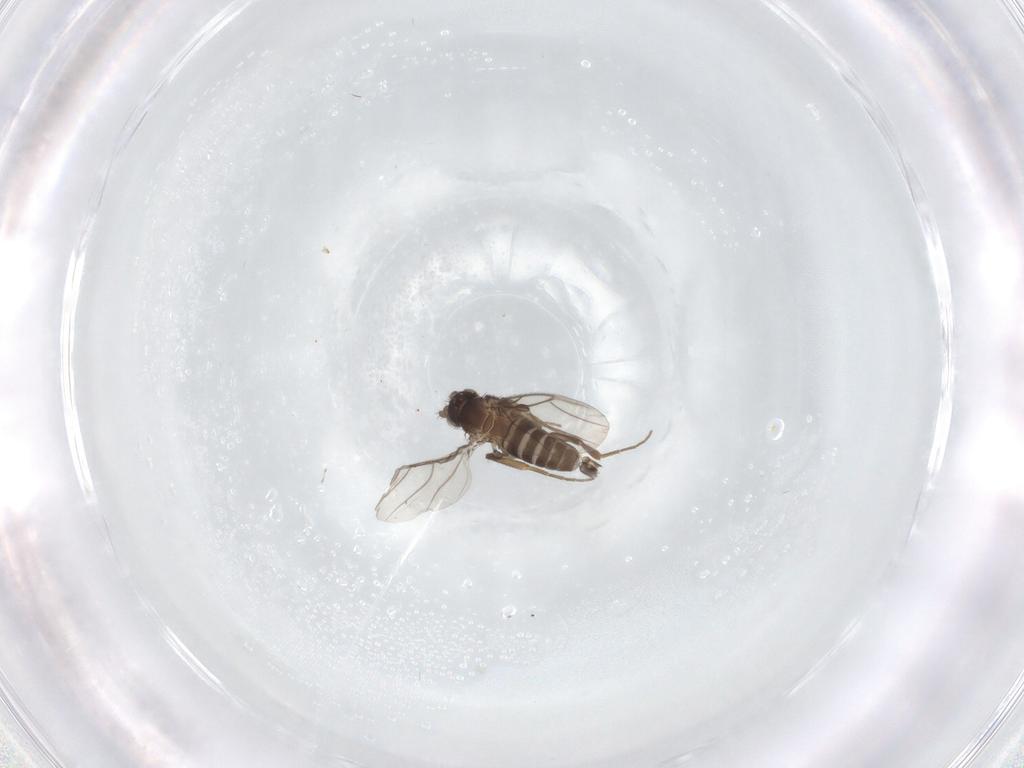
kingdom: Animalia
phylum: Arthropoda
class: Insecta
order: Diptera
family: Phoridae
